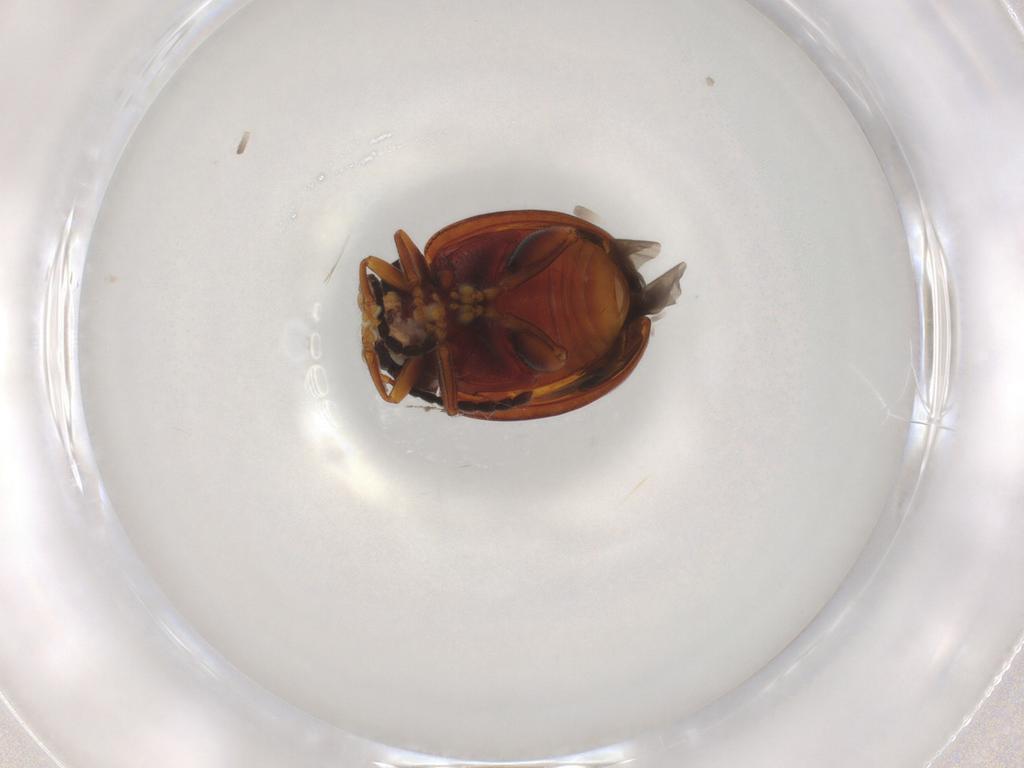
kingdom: Animalia
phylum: Arthropoda
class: Insecta
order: Coleoptera
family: Chrysomelidae
